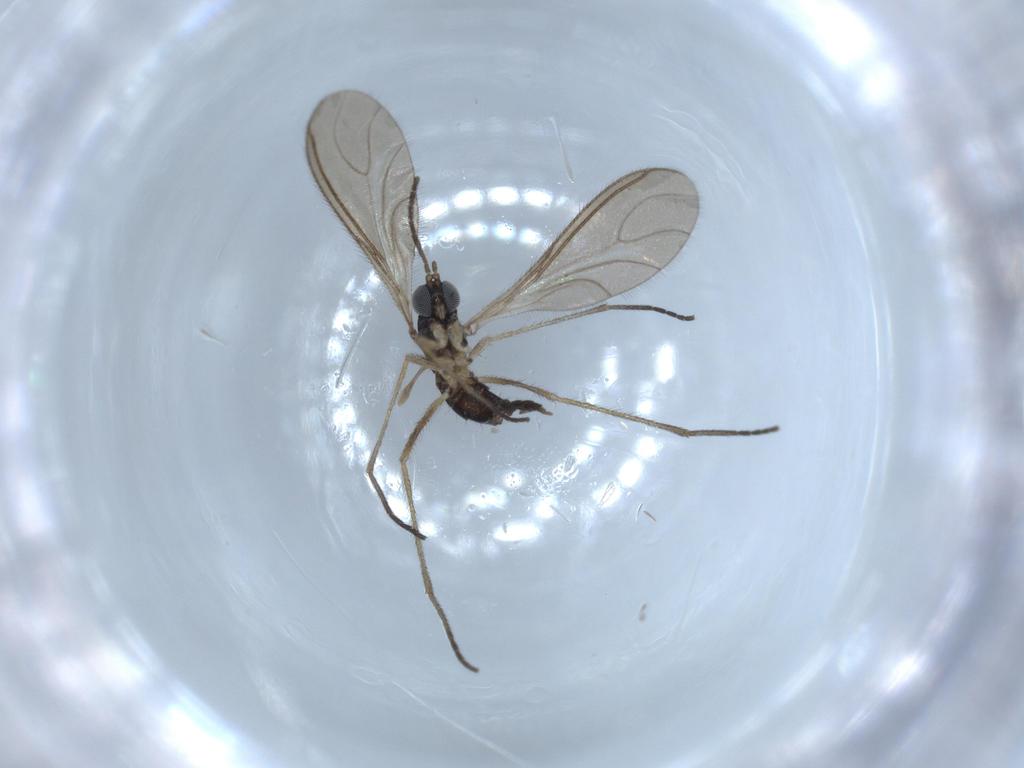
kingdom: Animalia
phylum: Arthropoda
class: Insecta
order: Diptera
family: Sciaridae
